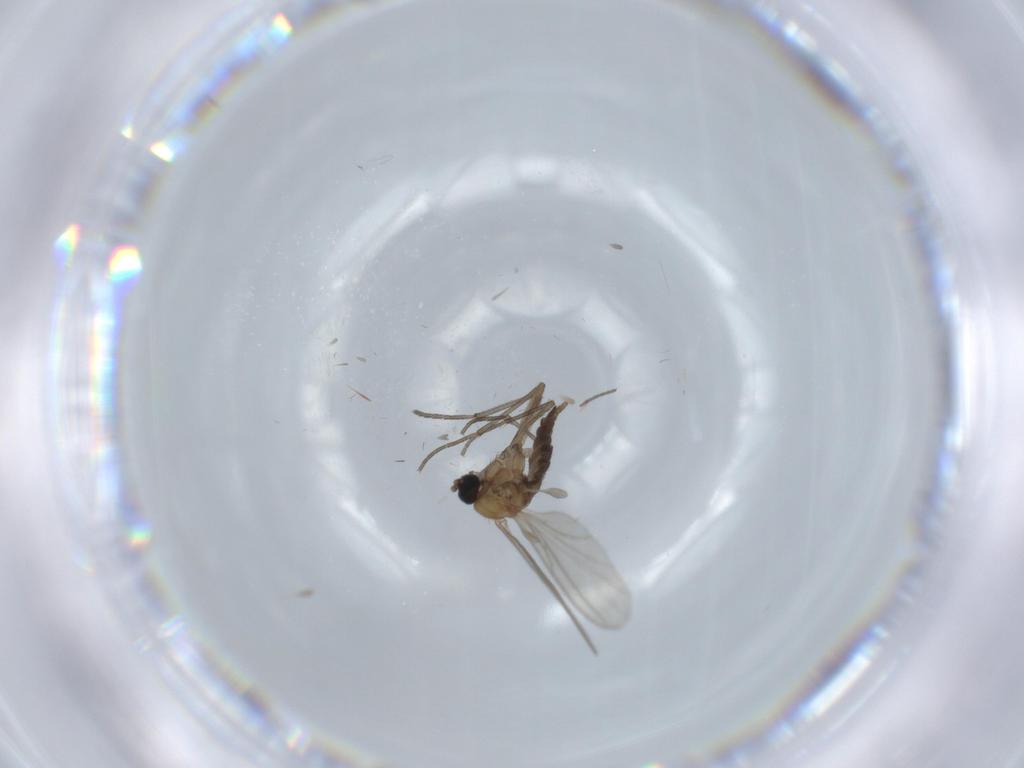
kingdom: Animalia
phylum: Arthropoda
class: Insecta
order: Diptera
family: Sciaridae
